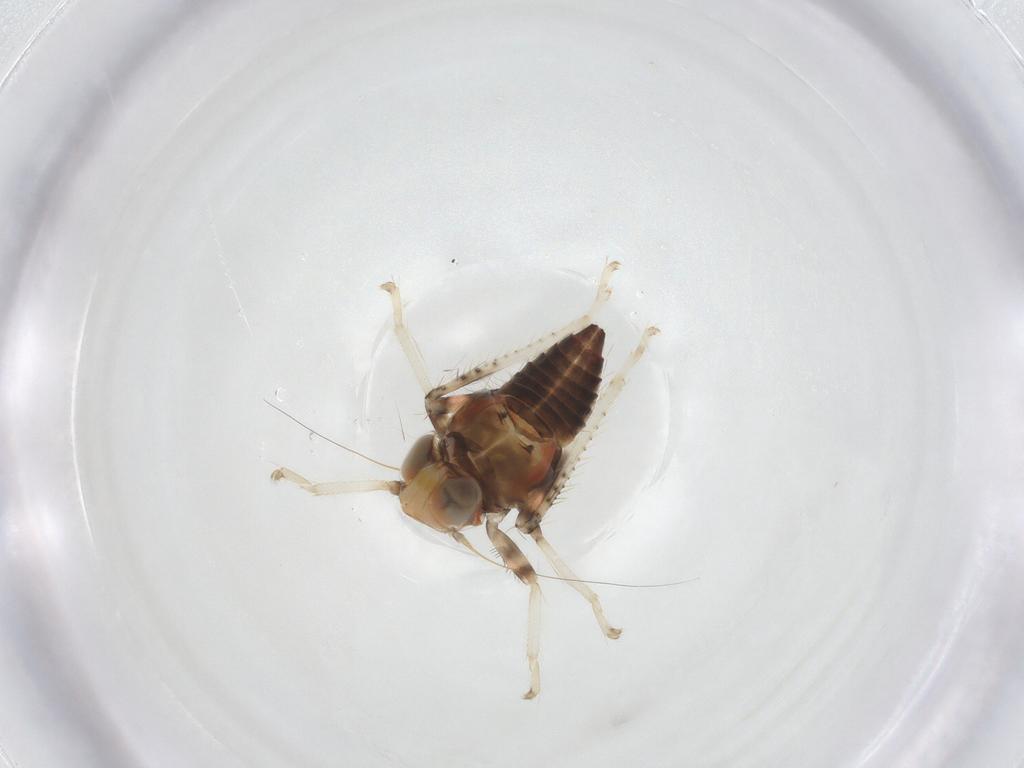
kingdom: Animalia
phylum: Arthropoda
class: Insecta
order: Hemiptera
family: Cicadellidae
